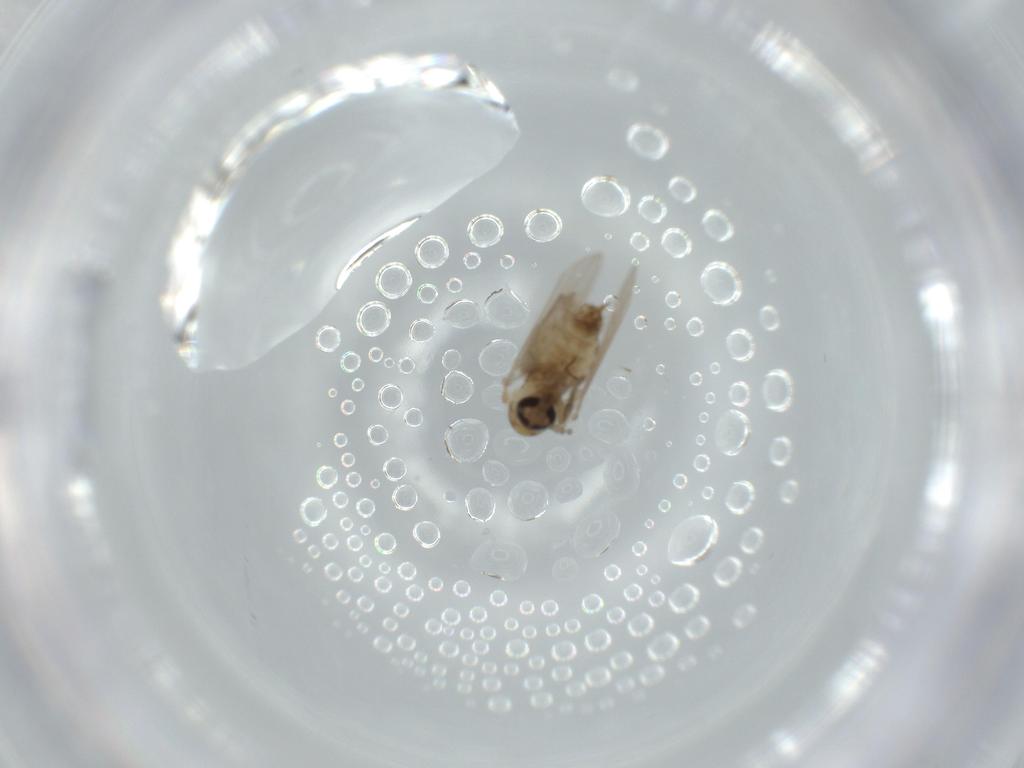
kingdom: Animalia
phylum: Arthropoda
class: Insecta
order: Diptera
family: Psychodidae
